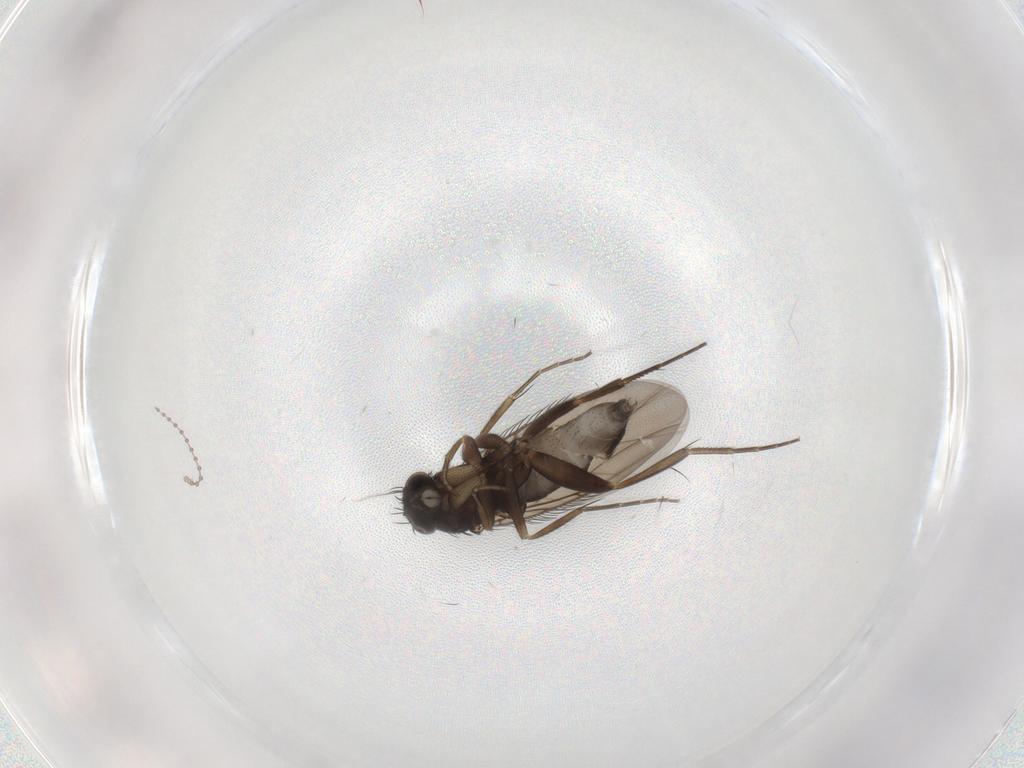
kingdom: Animalia
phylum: Arthropoda
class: Insecta
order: Diptera
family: Phoridae
